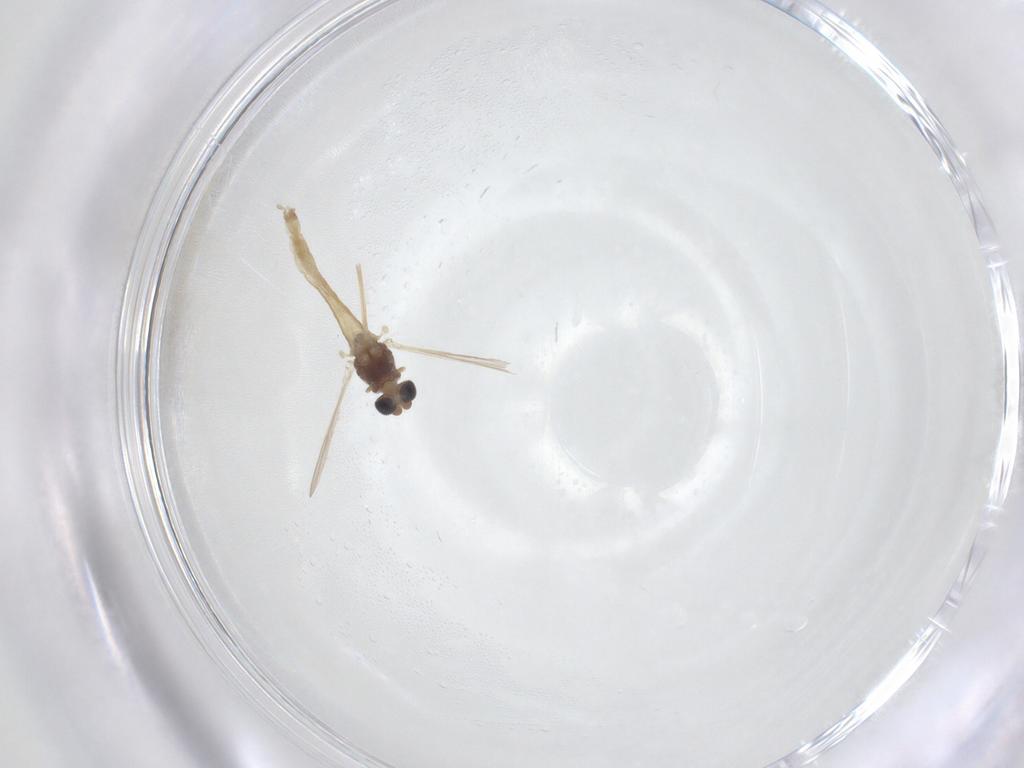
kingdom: Animalia
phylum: Arthropoda
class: Insecta
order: Diptera
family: Chironomidae
